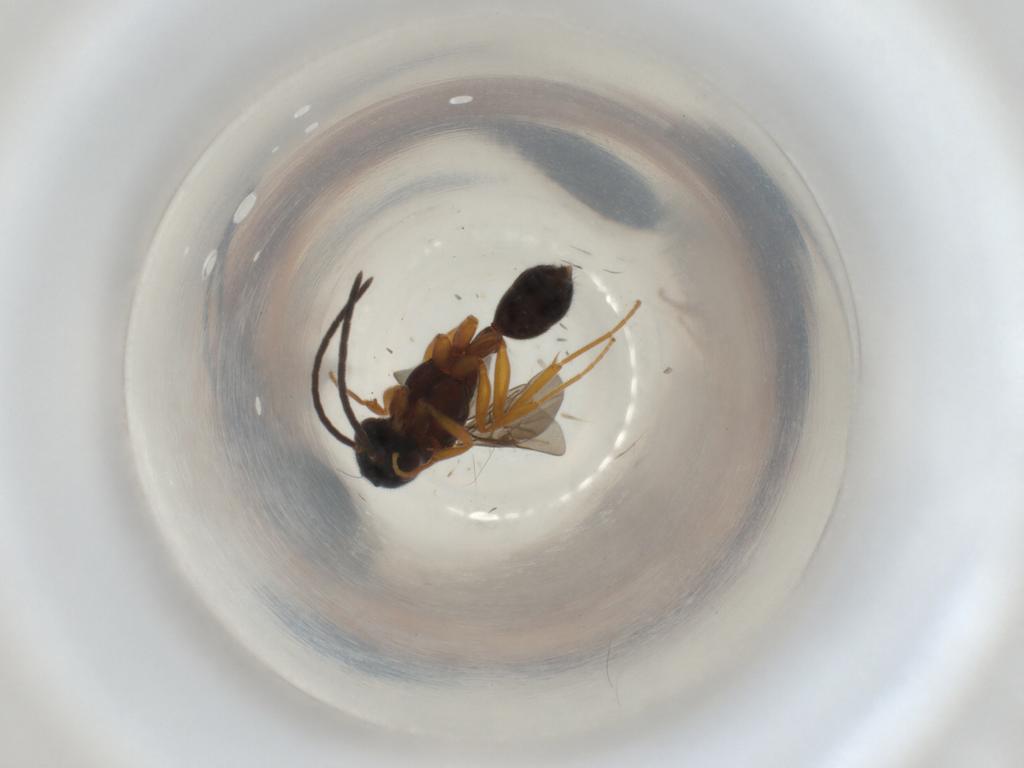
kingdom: Animalia
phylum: Arthropoda
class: Insecta
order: Hymenoptera
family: Formicidae
